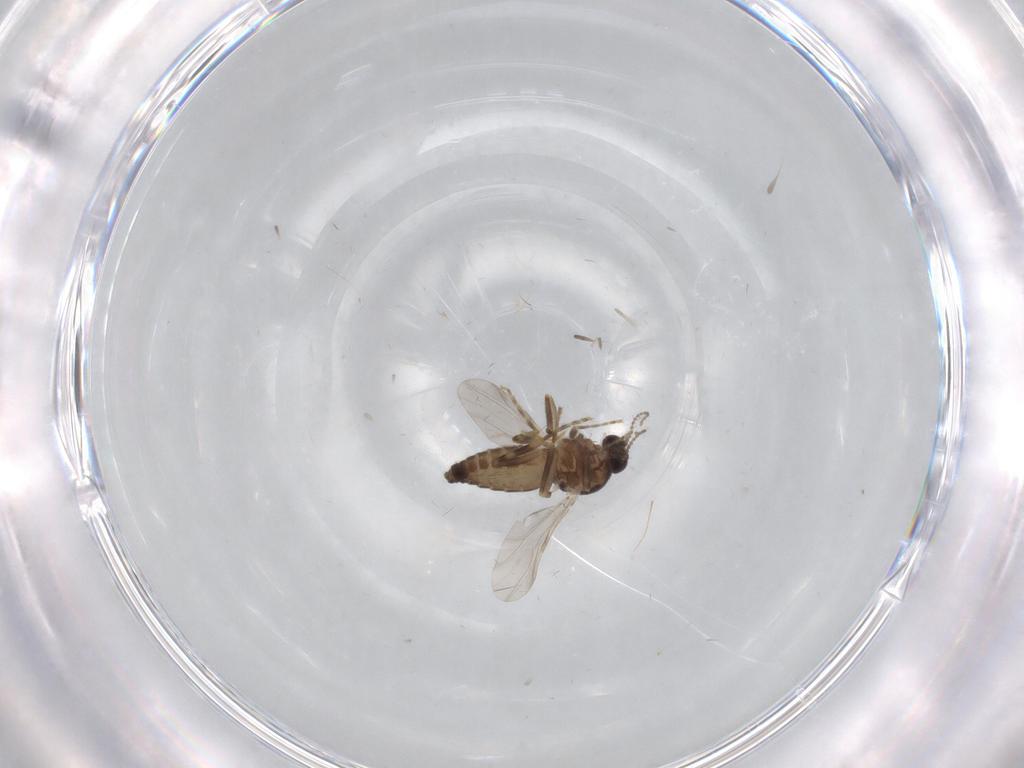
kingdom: Animalia
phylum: Arthropoda
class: Insecta
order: Diptera
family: Ceratopogonidae
